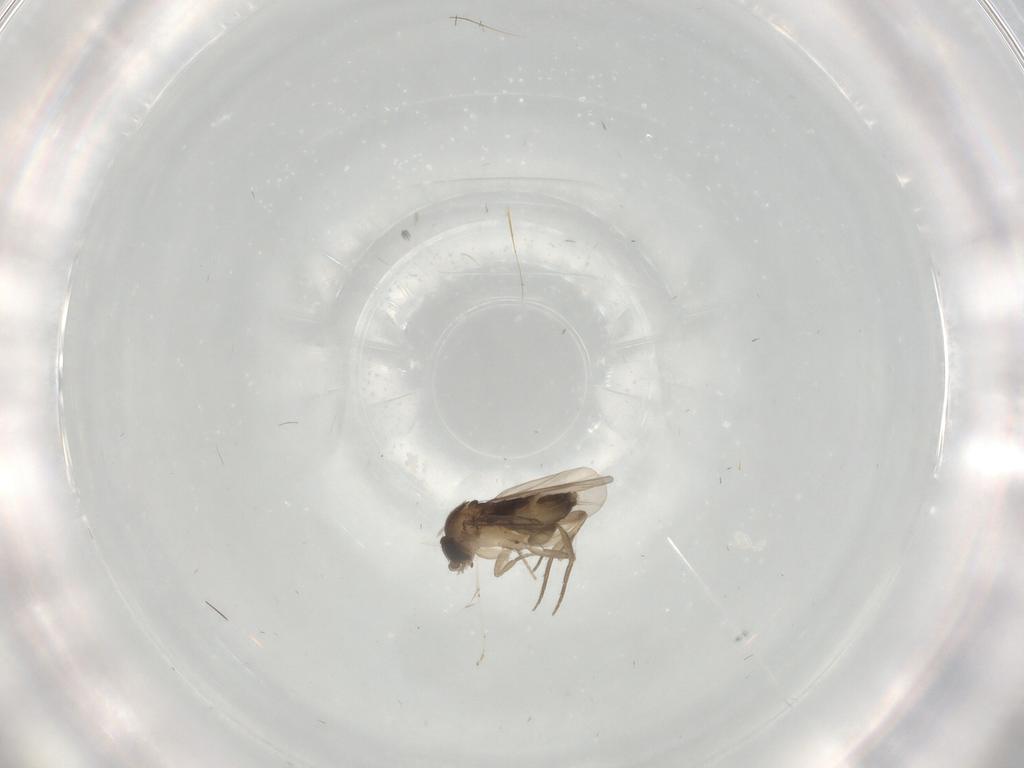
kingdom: Animalia
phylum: Arthropoda
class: Insecta
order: Diptera
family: Phoridae
